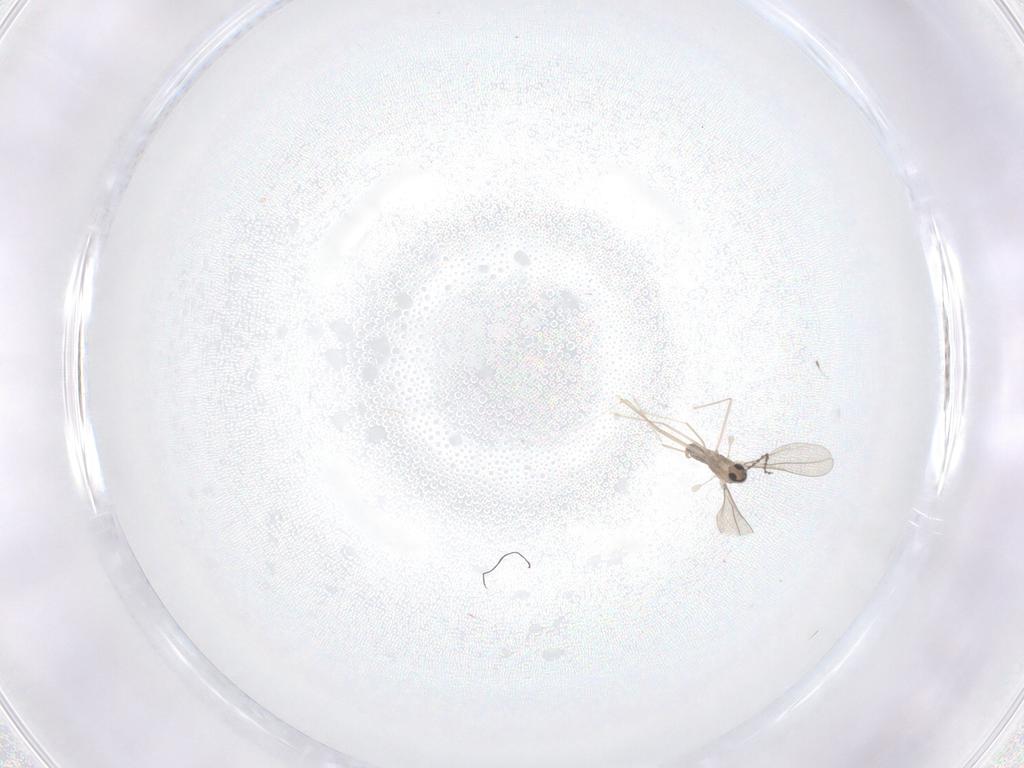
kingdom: Animalia
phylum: Arthropoda
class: Insecta
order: Diptera
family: Cecidomyiidae
